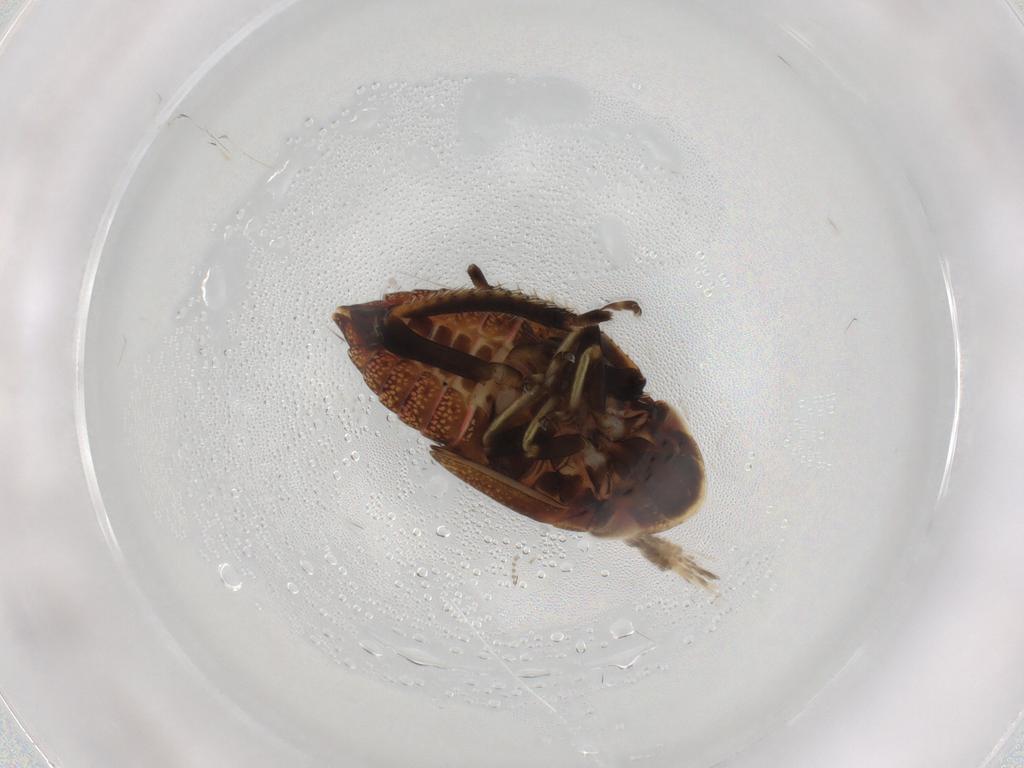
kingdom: Animalia
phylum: Arthropoda
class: Insecta
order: Hemiptera
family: Cicadellidae
